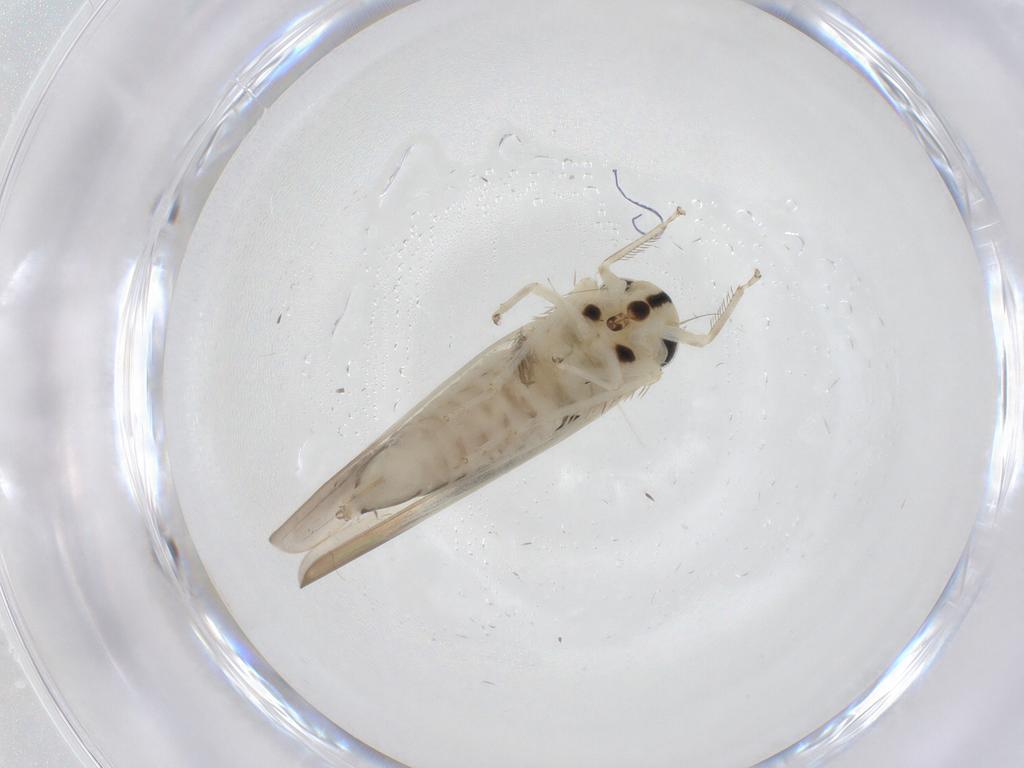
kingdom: Animalia
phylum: Arthropoda
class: Insecta
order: Hemiptera
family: Cicadellidae
